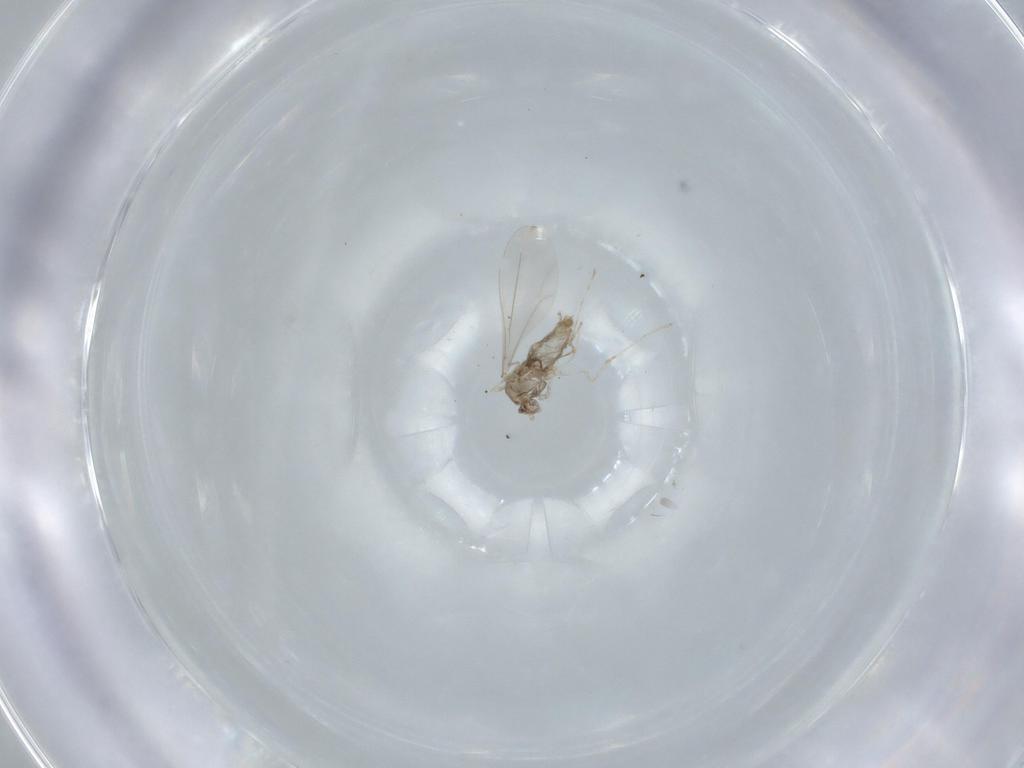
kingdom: Animalia
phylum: Arthropoda
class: Insecta
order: Diptera
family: Cecidomyiidae
